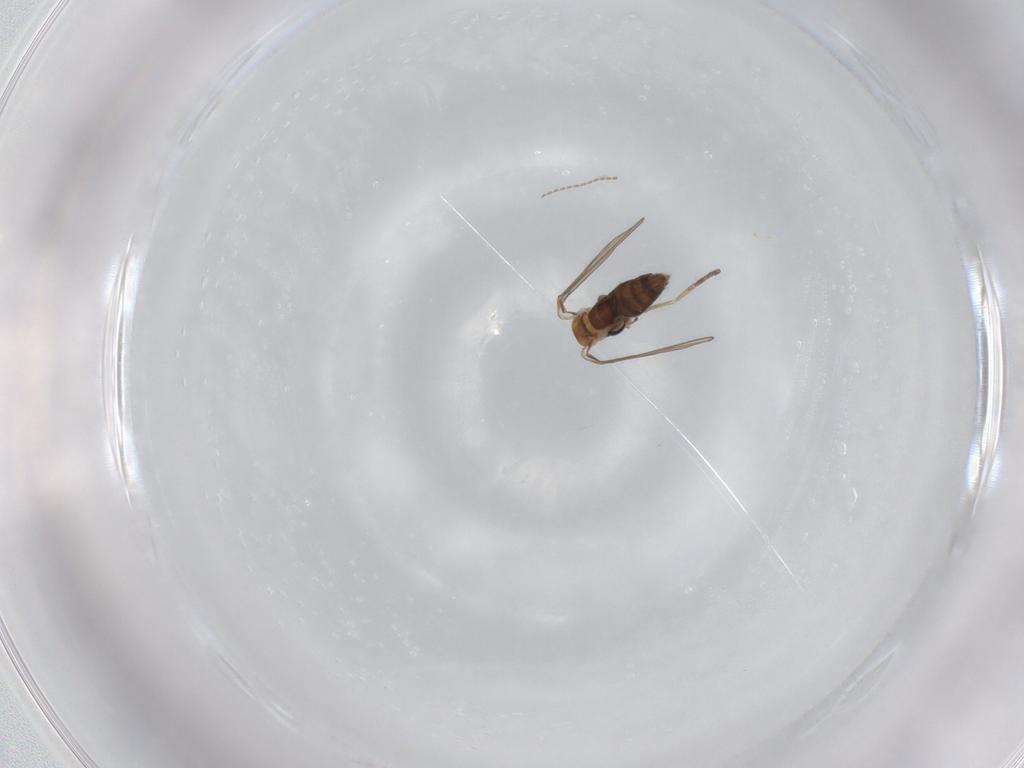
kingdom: Animalia
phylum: Arthropoda
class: Insecta
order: Diptera
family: Psychodidae
